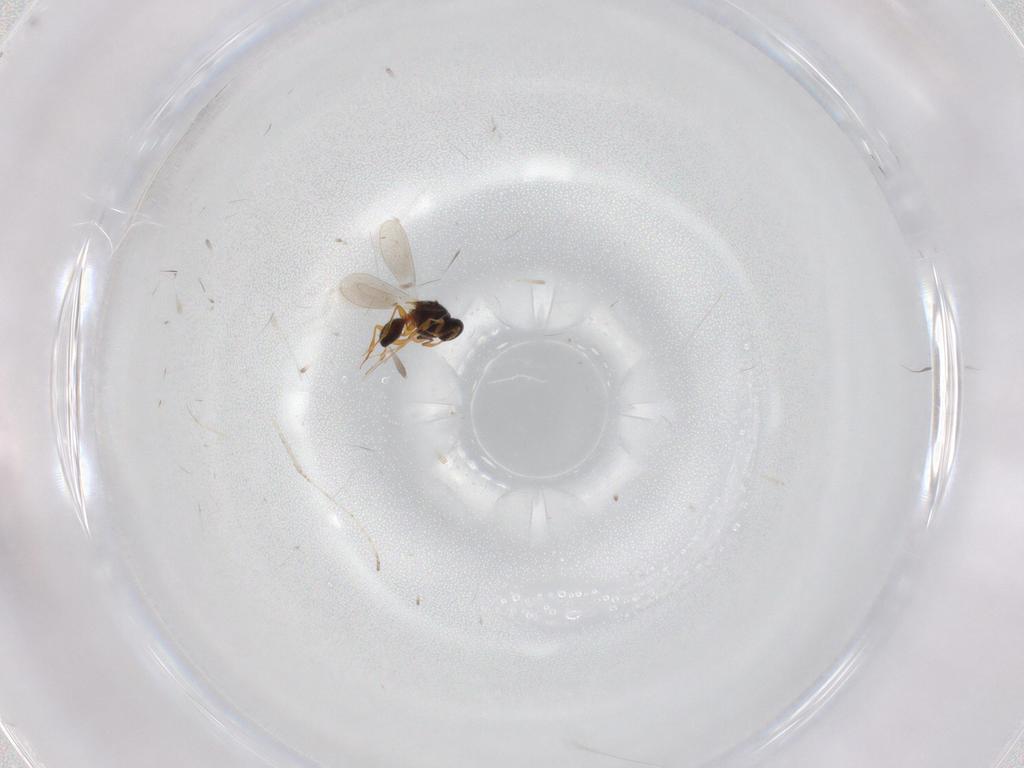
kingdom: Animalia
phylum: Arthropoda
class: Insecta
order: Hymenoptera
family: Platygastridae
